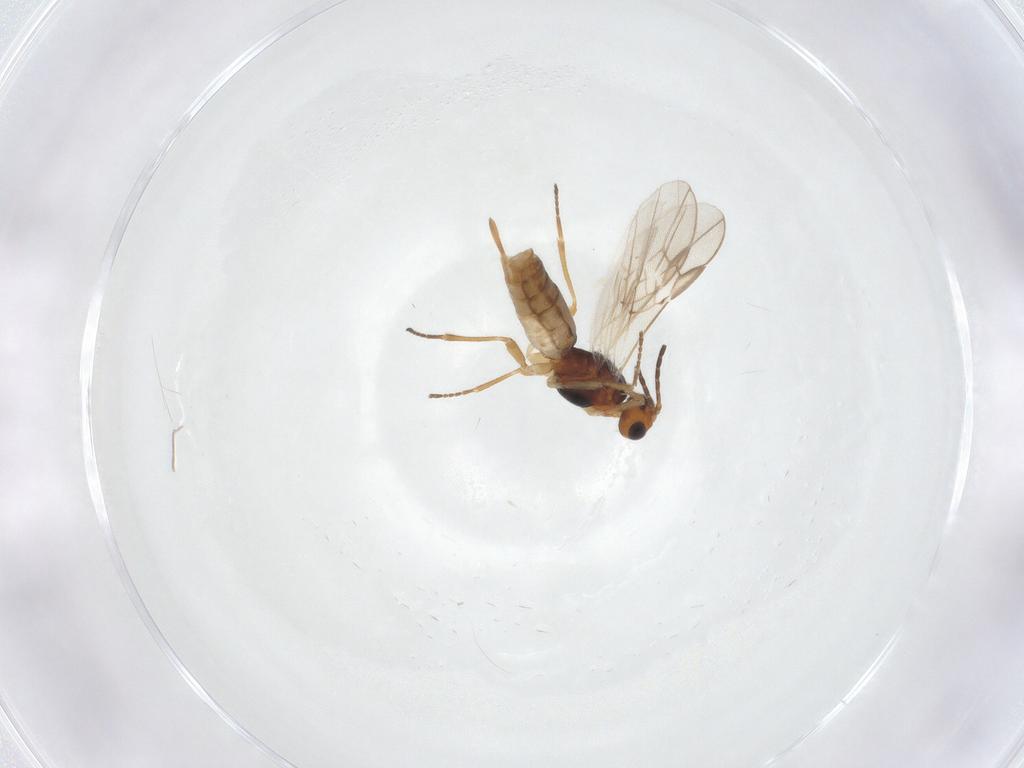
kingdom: Animalia
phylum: Arthropoda
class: Insecta
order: Hymenoptera
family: Braconidae
